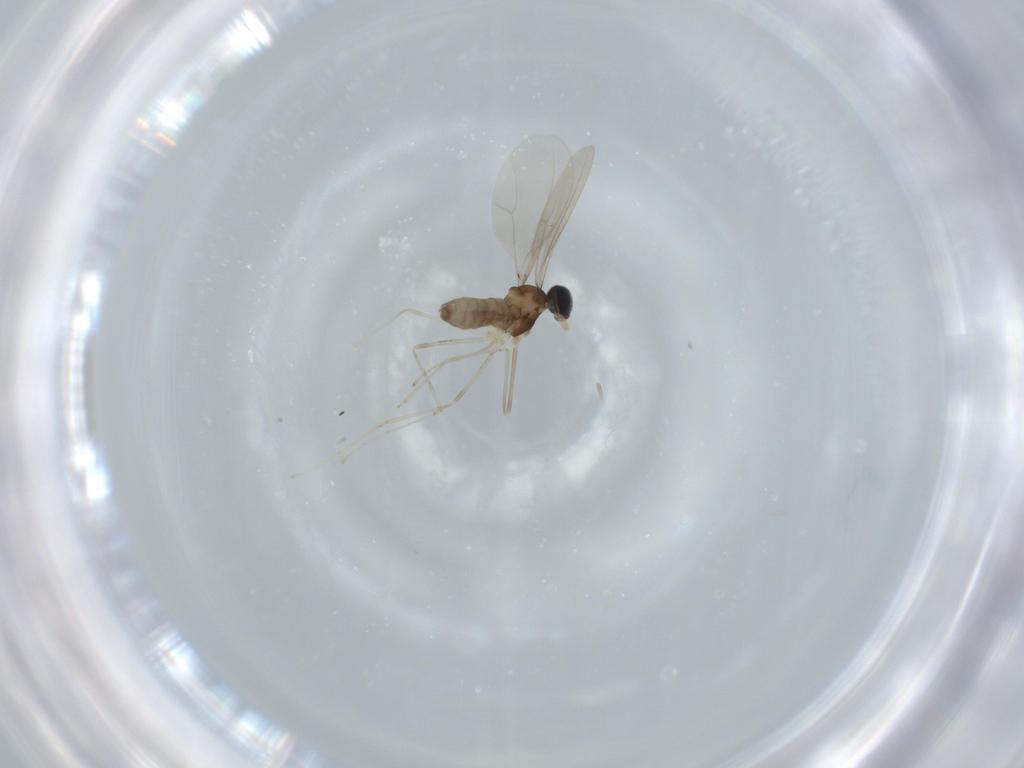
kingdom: Animalia
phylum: Arthropoda
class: Insecta
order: Diptera
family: Cecidomyiidae
